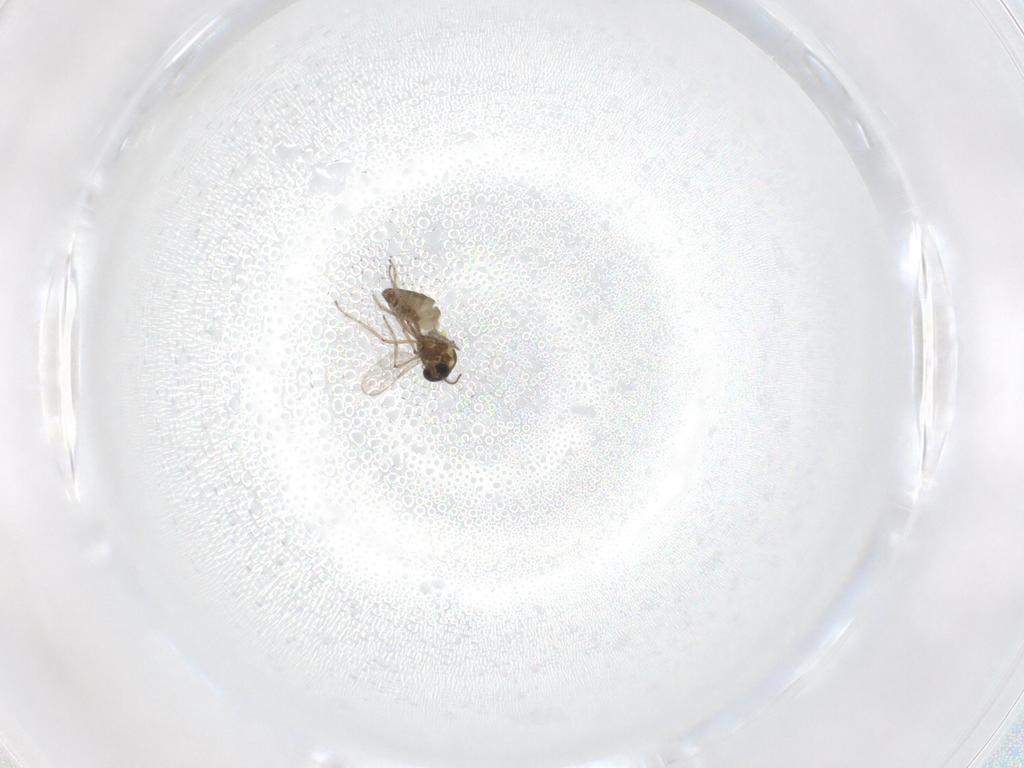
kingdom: Animalia
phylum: Arthropoda
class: Insecta
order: Diptera
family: Ceratopogonidae
